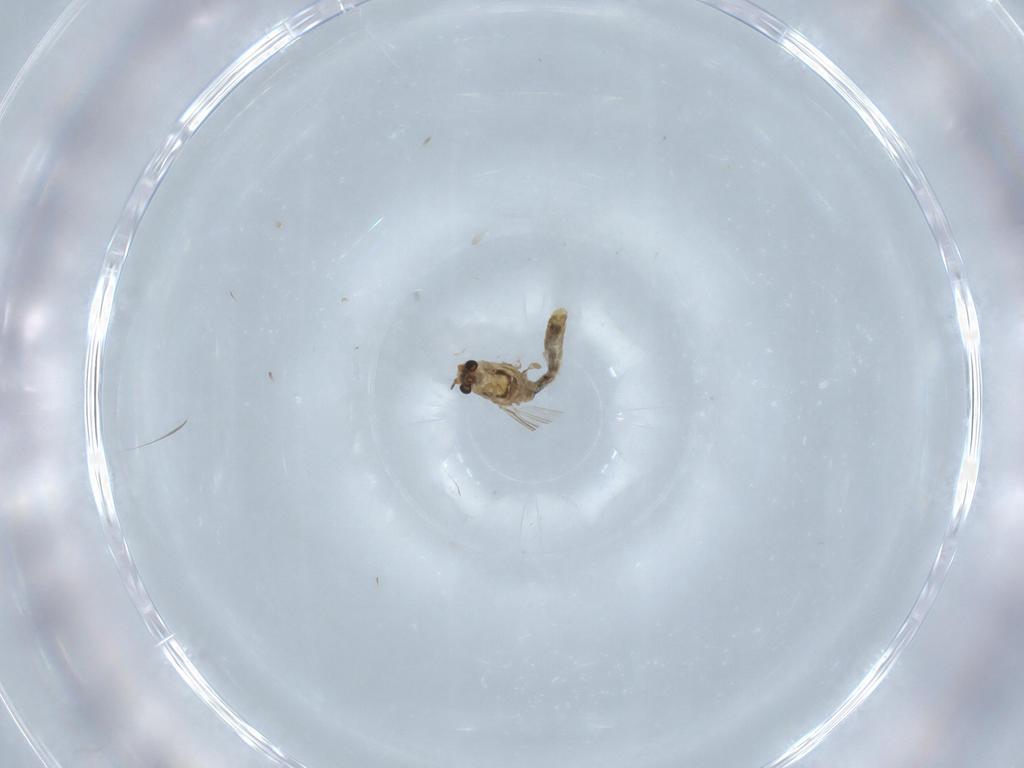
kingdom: Animalia
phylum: Arthropoda
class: Insecta
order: Diptera
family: Chironomidae
